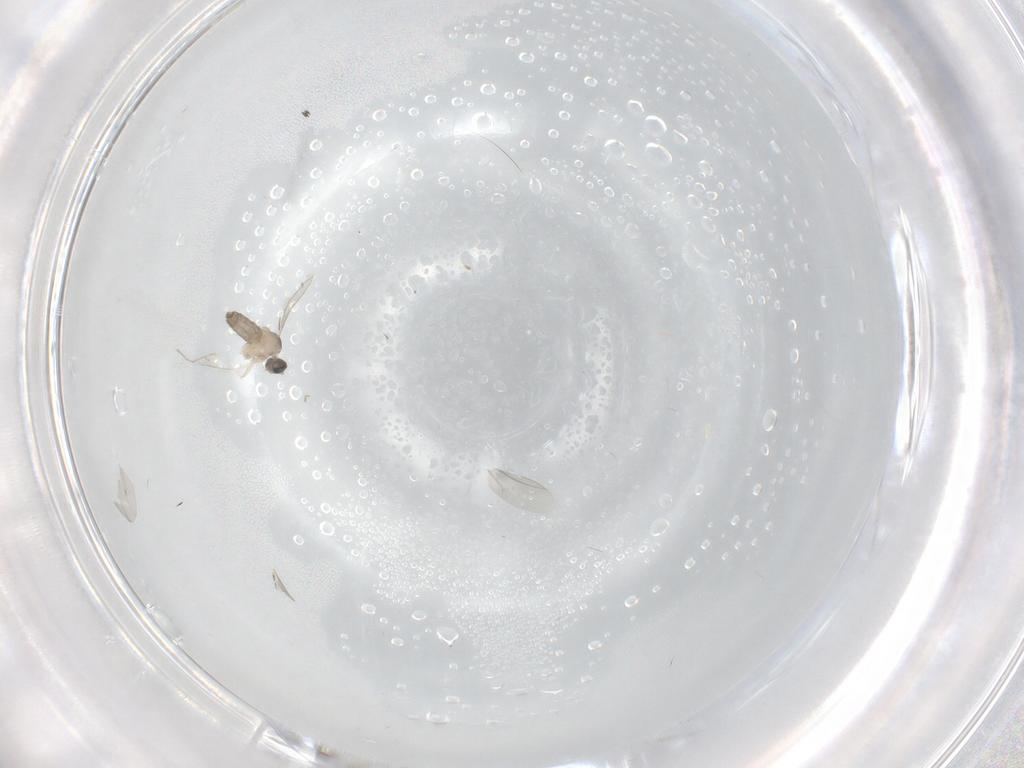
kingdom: Animalia
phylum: Arthropoda
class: Insecta
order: Diptera
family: Cecidomyiidae
